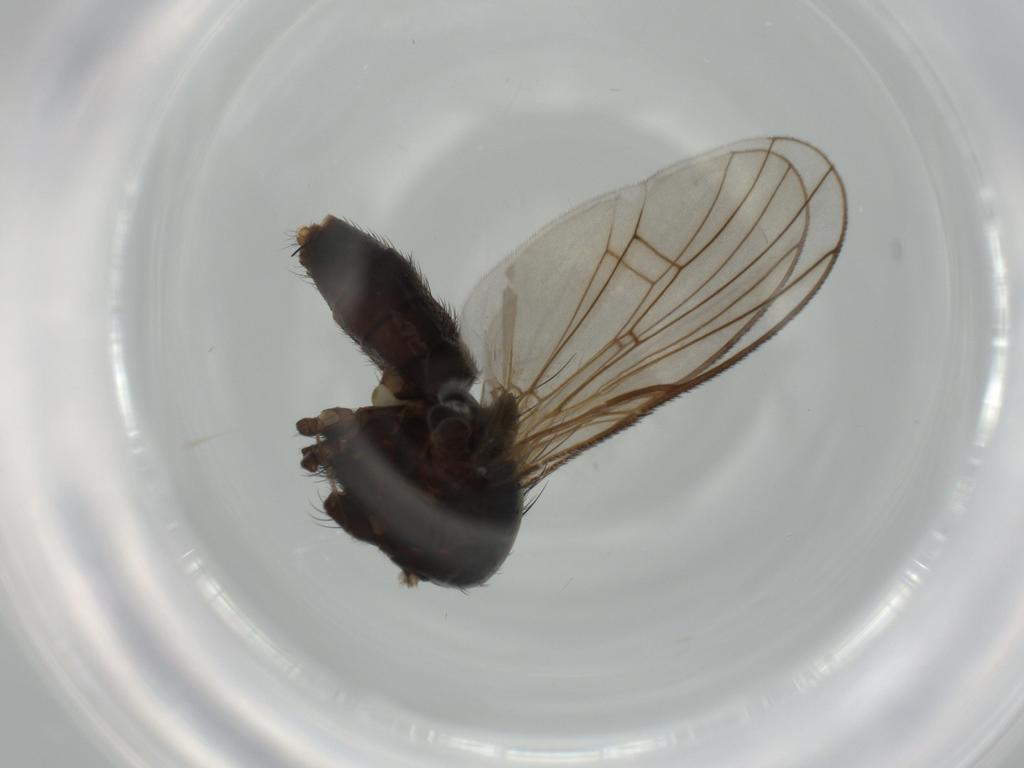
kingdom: Animalia
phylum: Arthropoda
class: Insecta
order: Diptera
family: Muscidae
